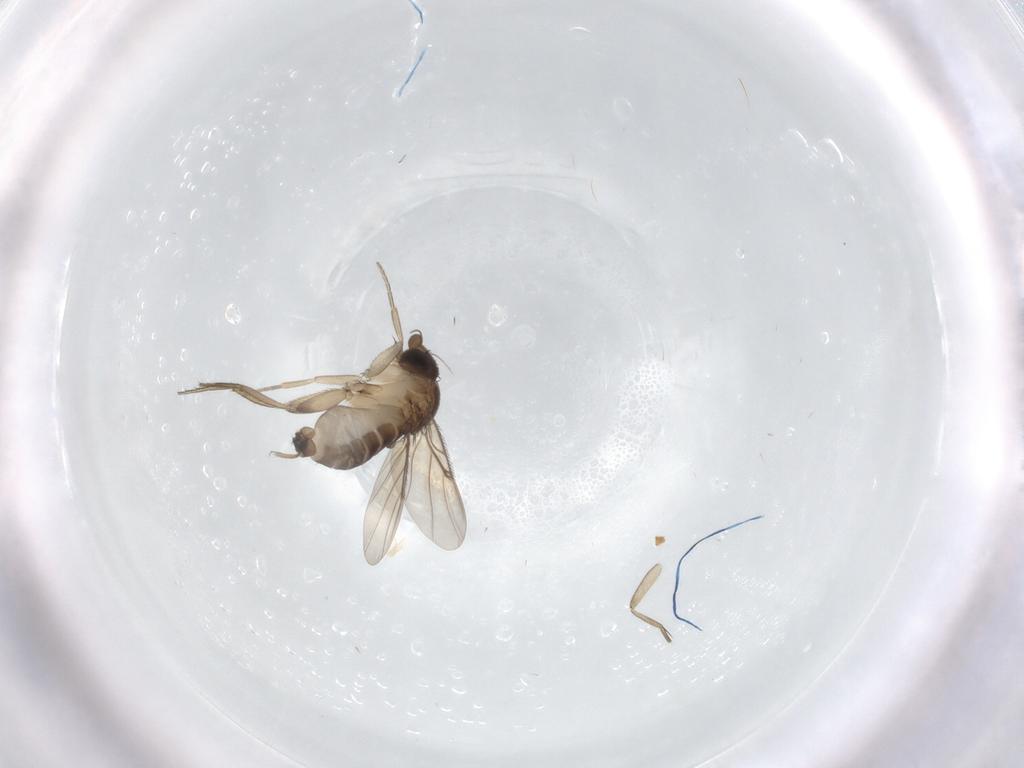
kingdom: Animalia
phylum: Arthropoda
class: Insecta
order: Diptera
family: Phoridae
